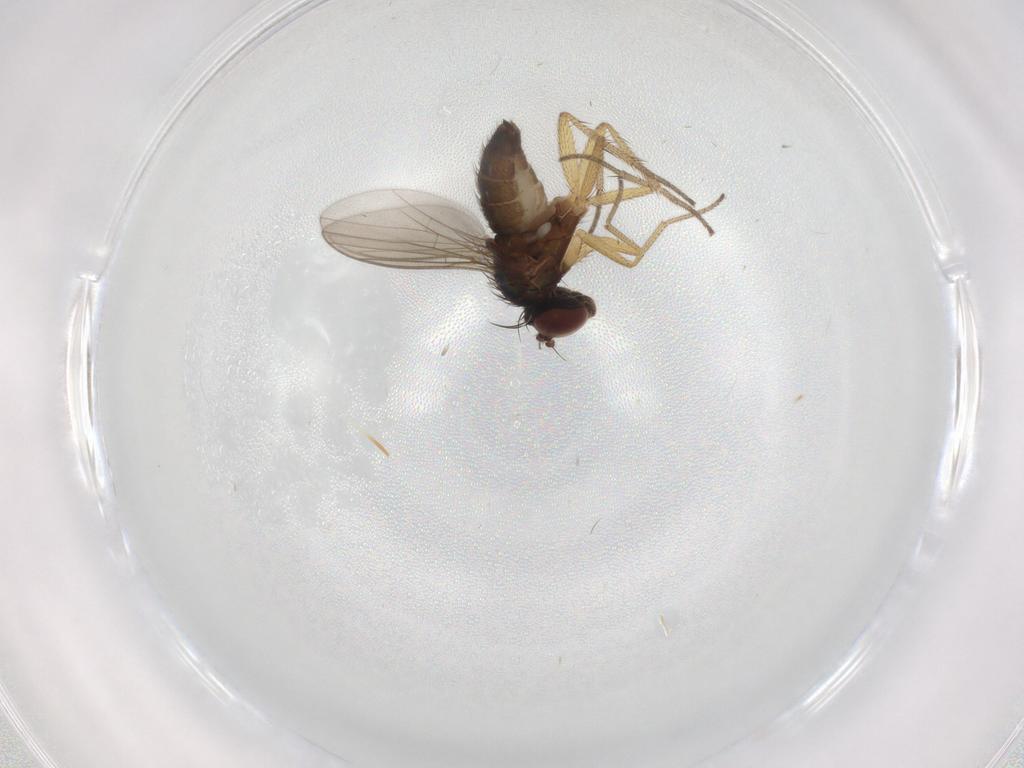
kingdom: Animalia
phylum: Arthropoda
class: Insecta
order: Diptera
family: Dolichopodidae
